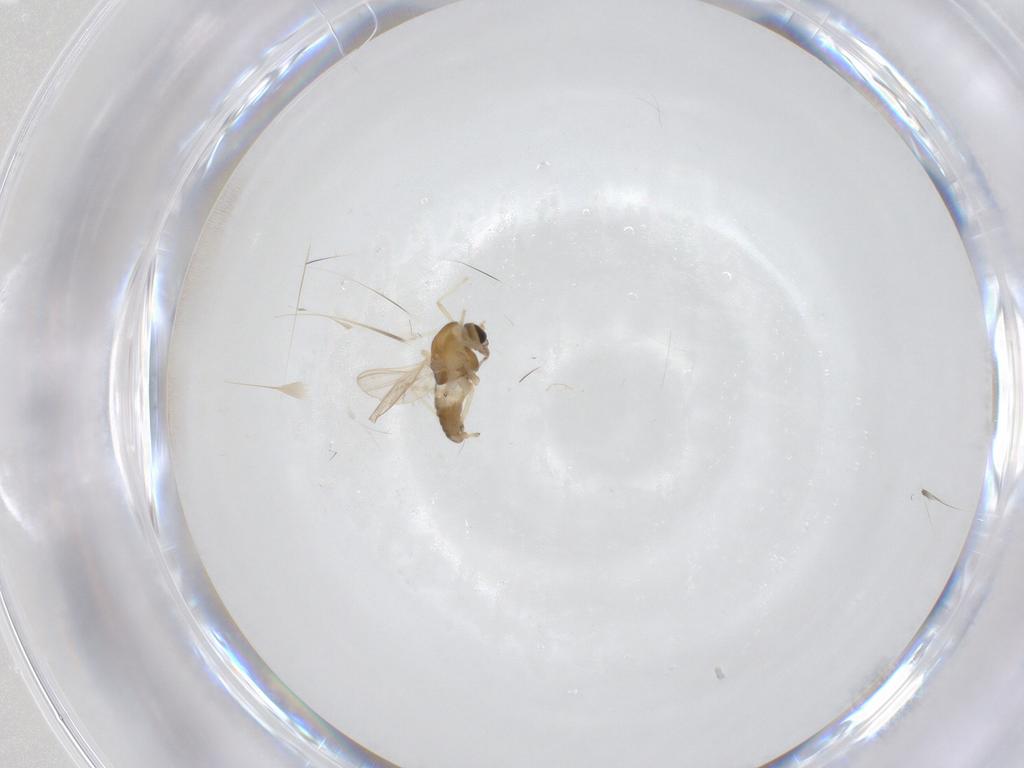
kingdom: Animalia
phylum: Arthropoda
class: Insecta
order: Diptera
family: Chironomidae
